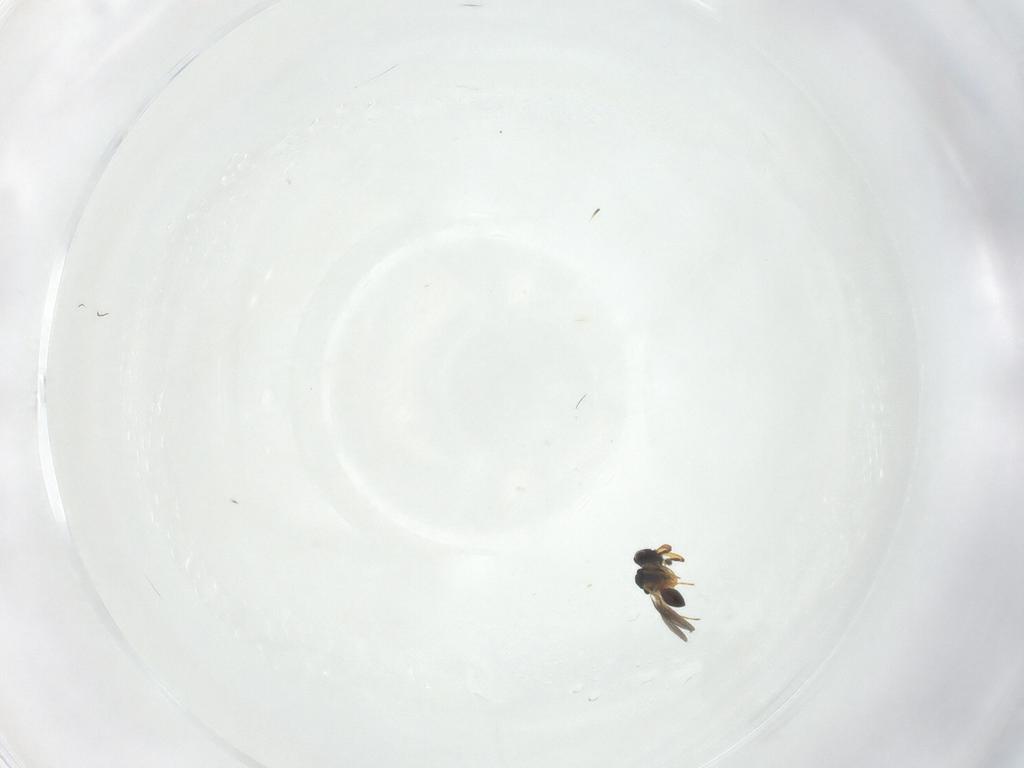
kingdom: Animalia
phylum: Arthropoda
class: Insecta
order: Hymenoptera
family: Platygastridae
